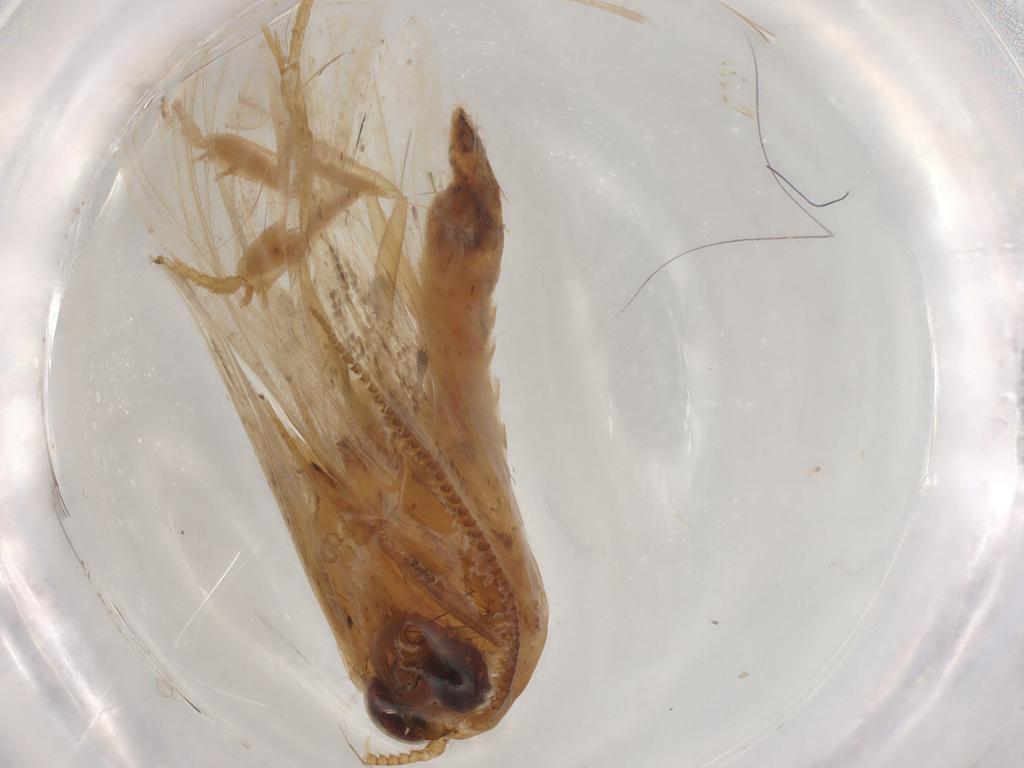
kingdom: Animalia
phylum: Arthropoda
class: Insecta
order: Lepidoptera
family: Geometridae
